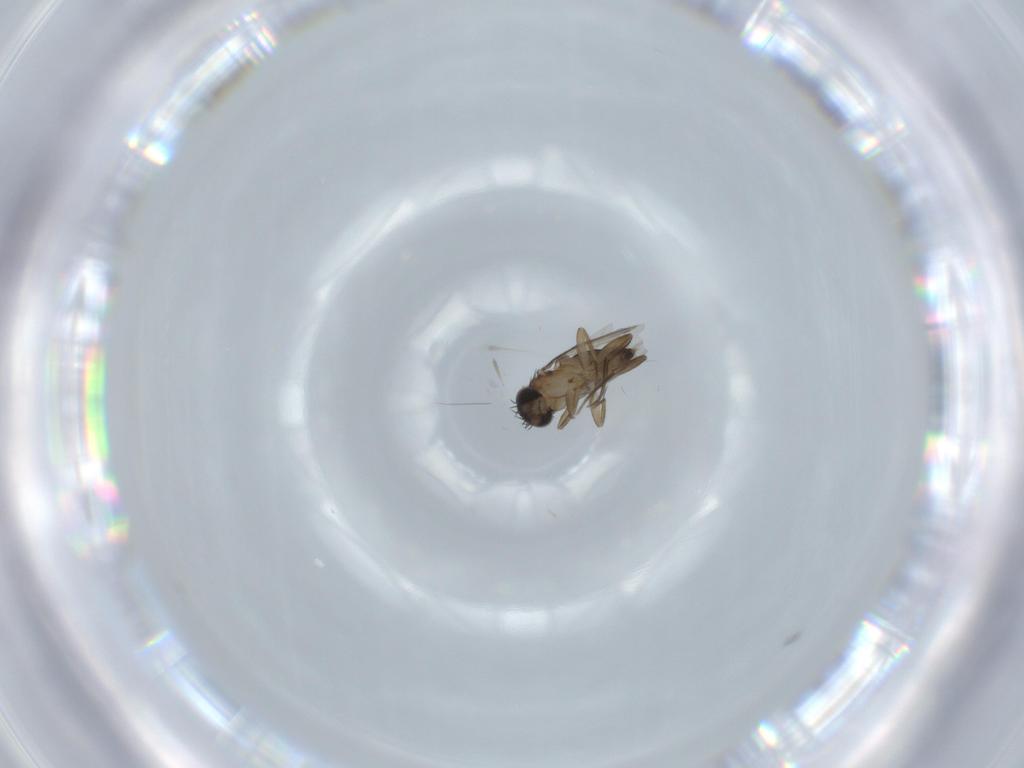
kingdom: Animalia
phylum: Arthropoda
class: Insecta
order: Diptera
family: Phoridae
